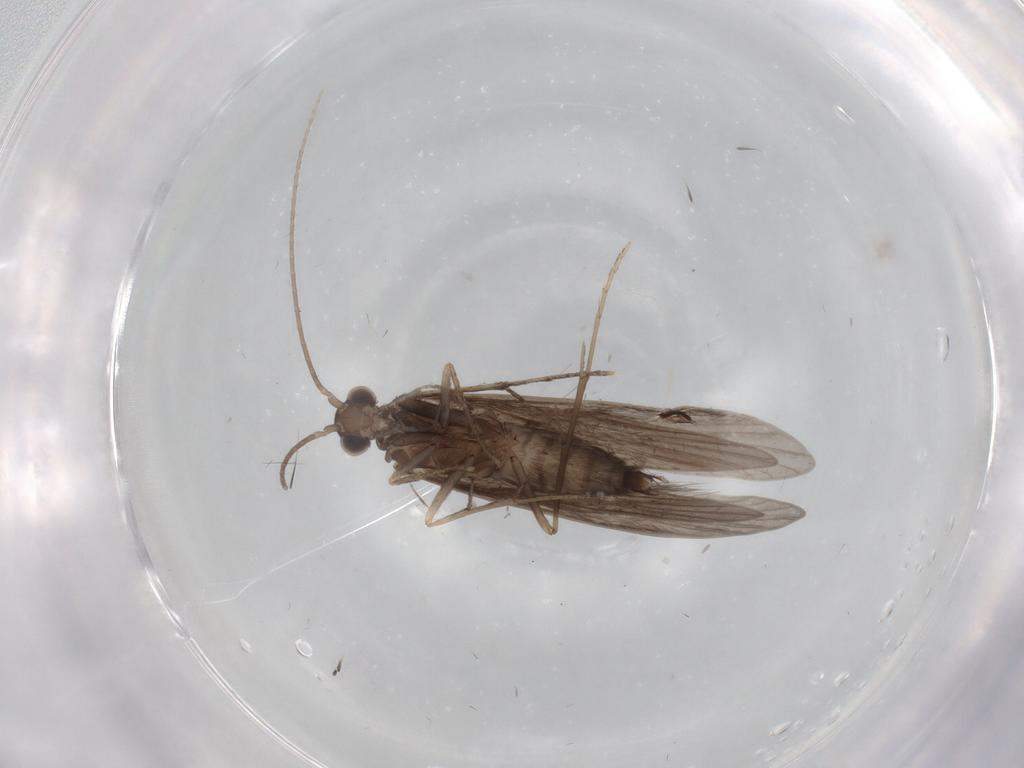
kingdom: Animalia
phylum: Arthropoda
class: Insecta
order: Trichoptera
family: Xiphocentronidae
